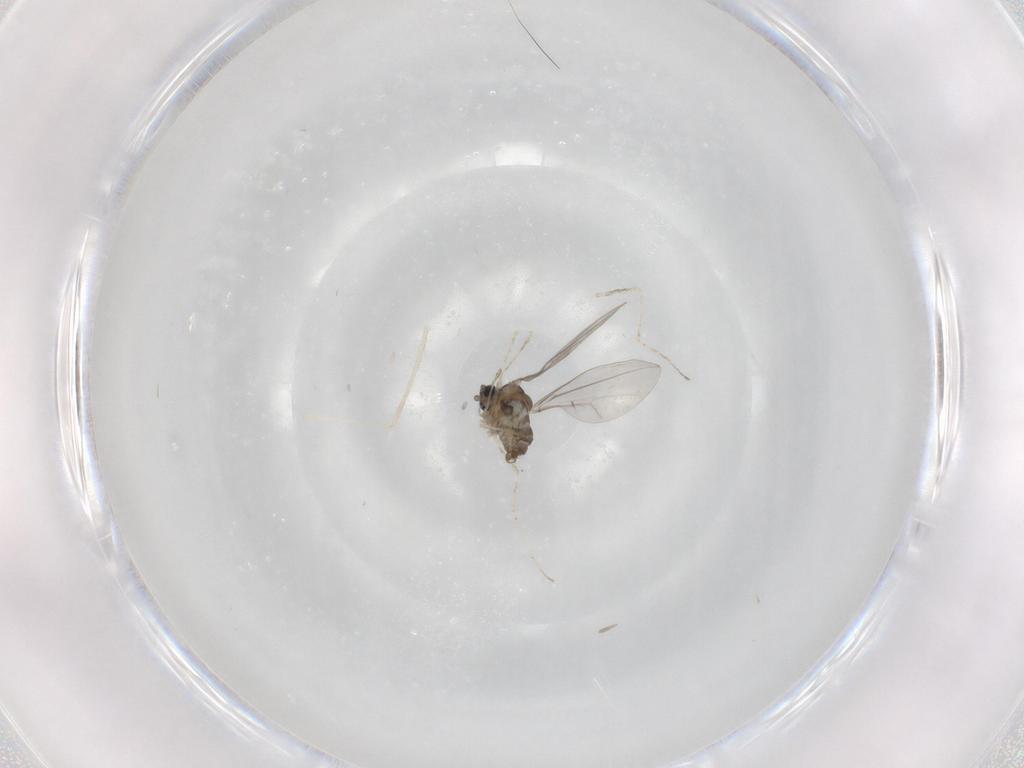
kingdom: Animalia
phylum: Arthropoda
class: Insecta
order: Diptera
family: Cecidomyiidae
